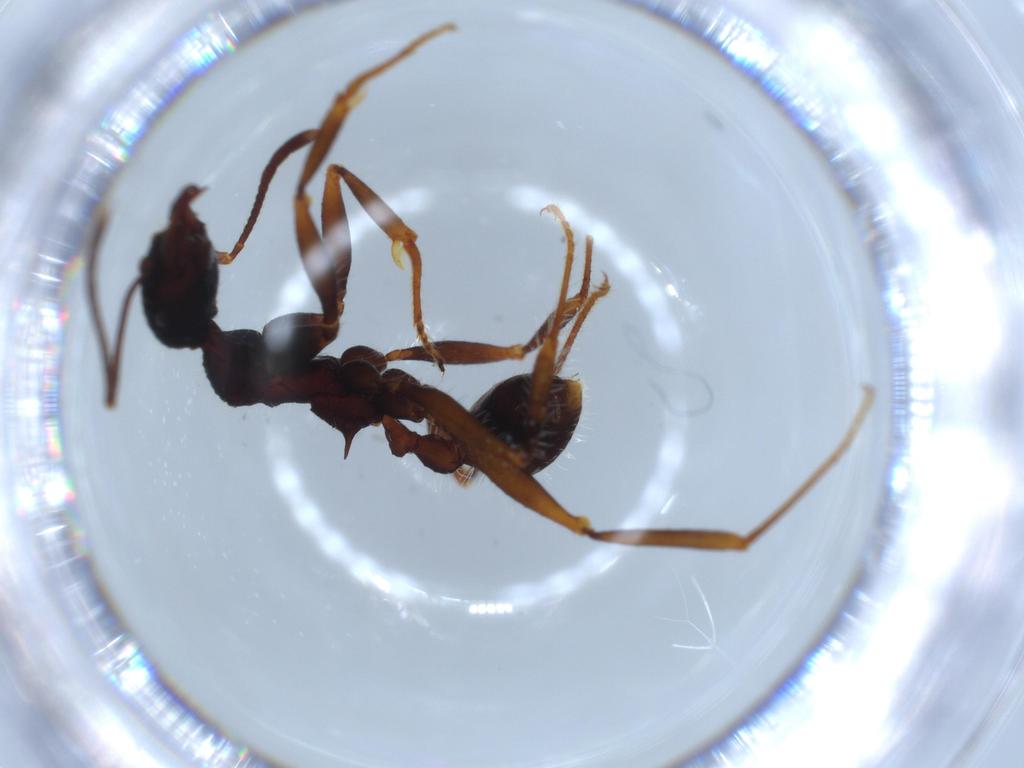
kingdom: Animalia
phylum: Arthropoda
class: Insecta
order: Hymenoptera
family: Formicidae
